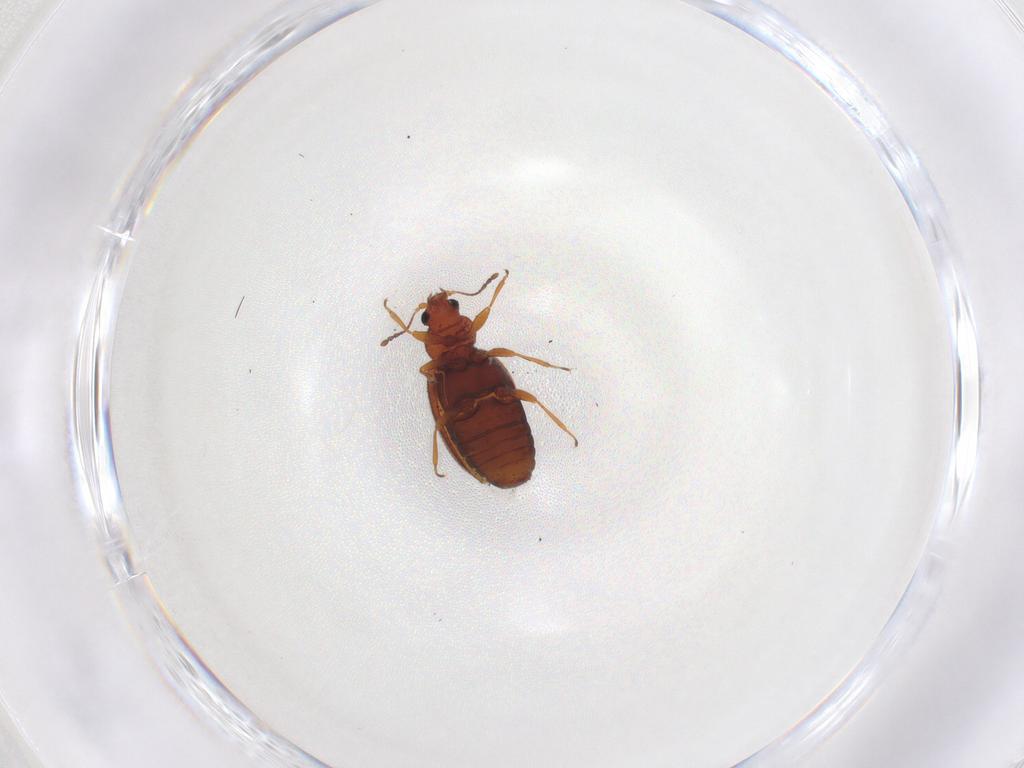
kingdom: Animalia
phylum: Arthropoda
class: Insecta
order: Coleoptera
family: Latridiidae
